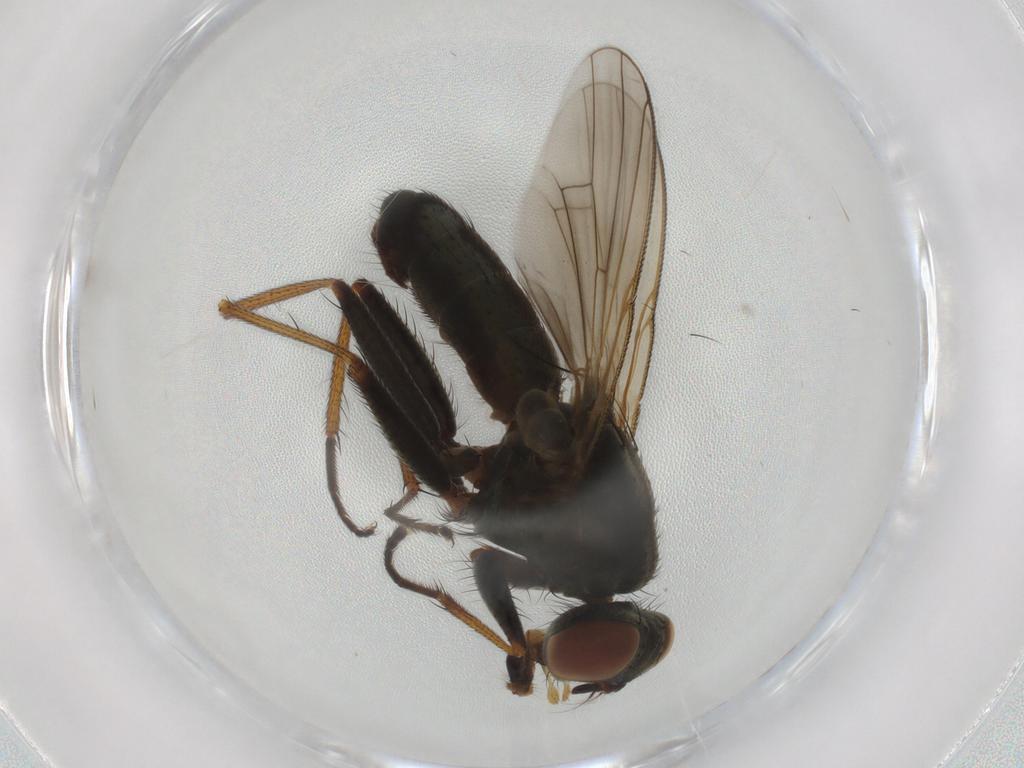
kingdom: Animalia
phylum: Arthropoda
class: Insecta
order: Diptera
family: Muscidae
